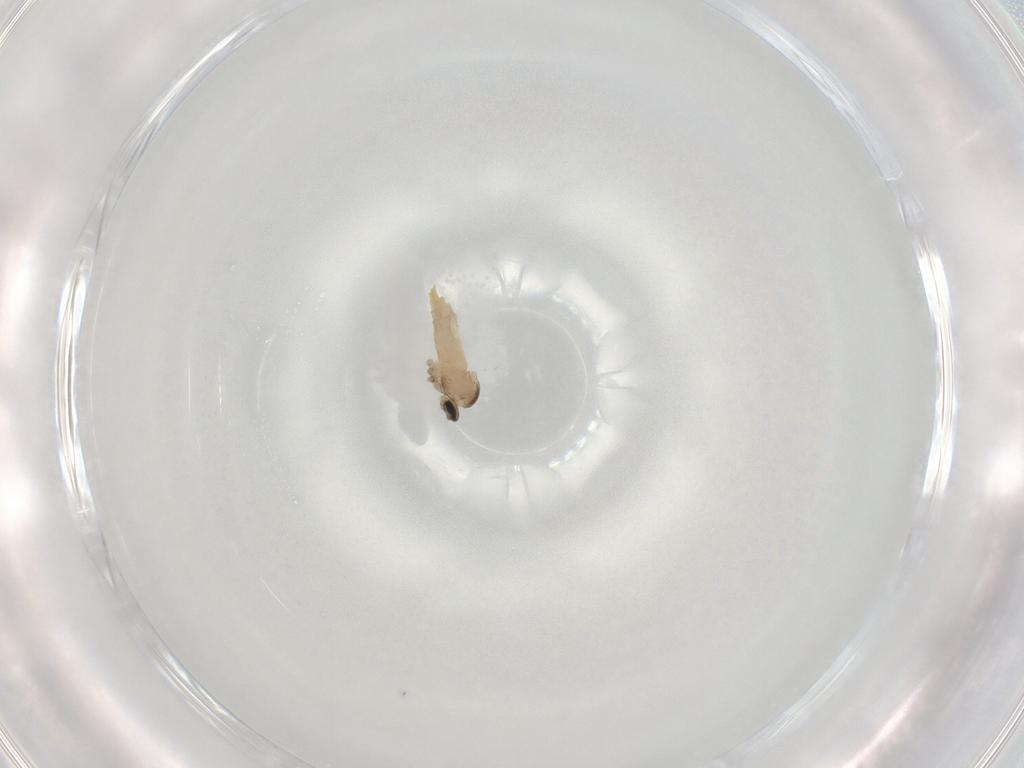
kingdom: Animalia
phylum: Arthropoda
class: Insecta
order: Diptera
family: Cecidomyiidae
